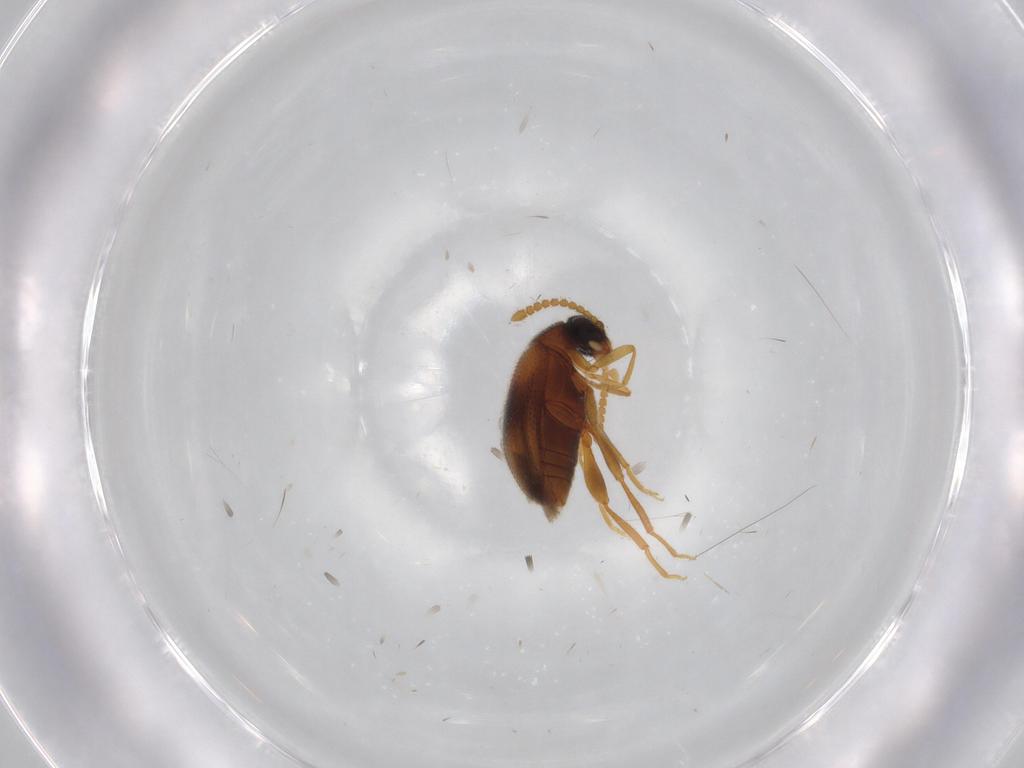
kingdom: Animalia
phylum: Arthropoda
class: Insecta
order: Coleoptera
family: Aderidae
